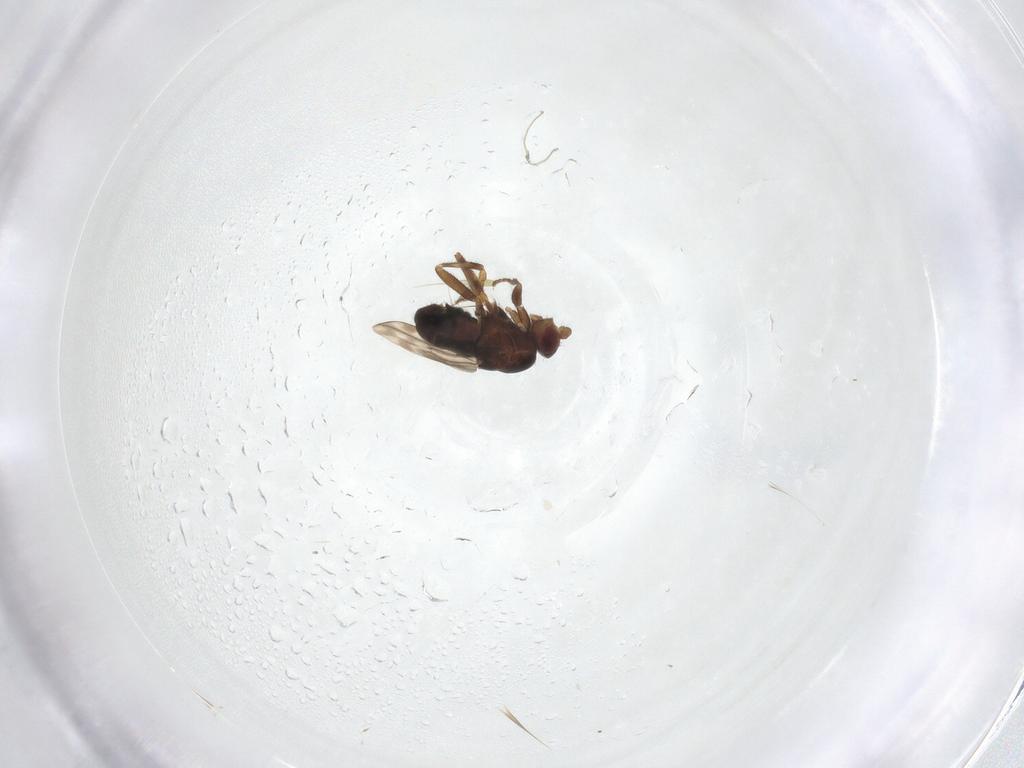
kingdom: Animalia
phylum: Arthropoda
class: Insecta
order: Diptera
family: Sphaeroceridae
